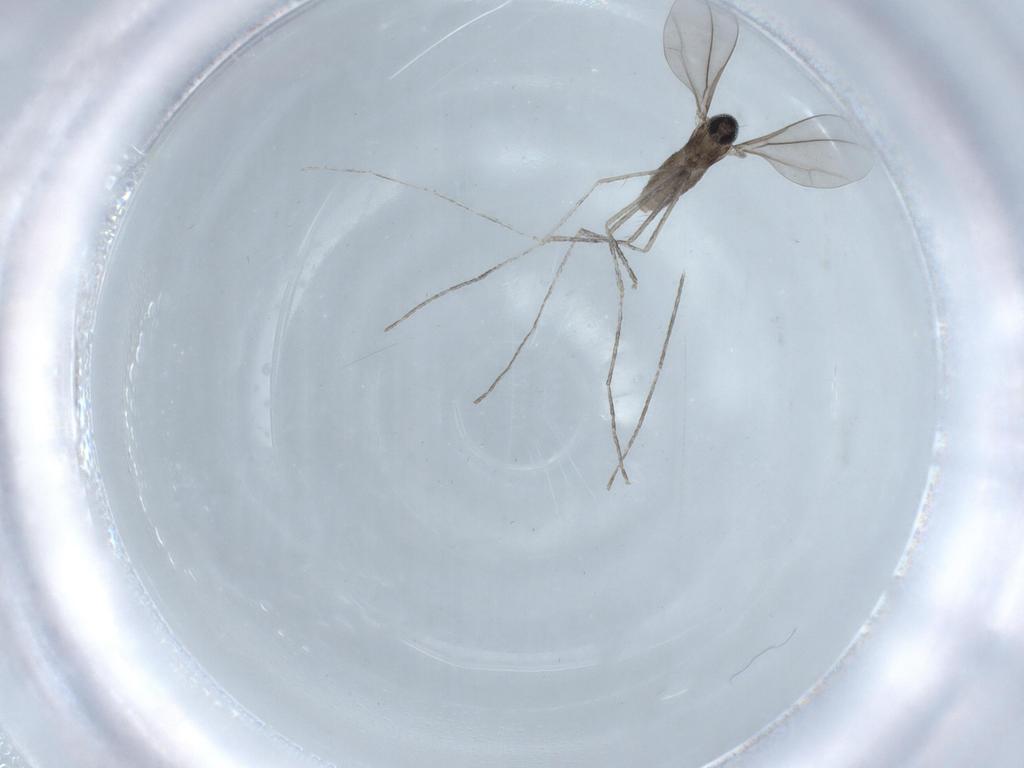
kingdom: Animalia
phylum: Arthropoda
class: Insecta
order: Diptera
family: Cecidomyiidae
